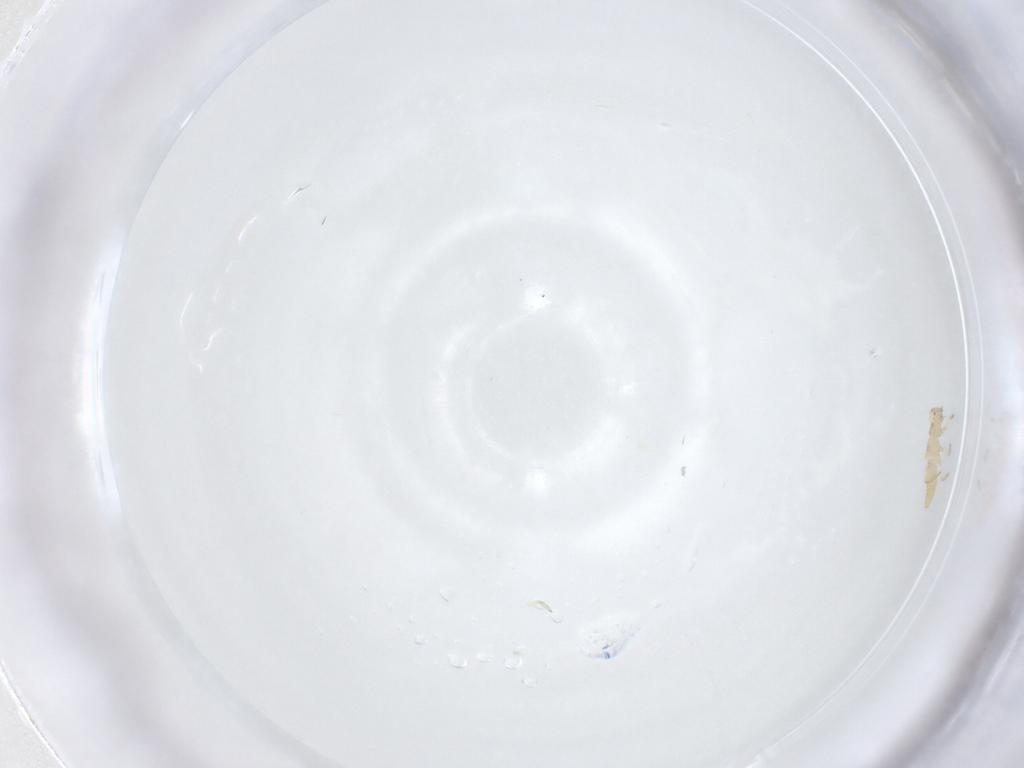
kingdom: Animalia
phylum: Arthropoda
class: Insecta
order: Thysanoptera
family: Aeolothripidae
